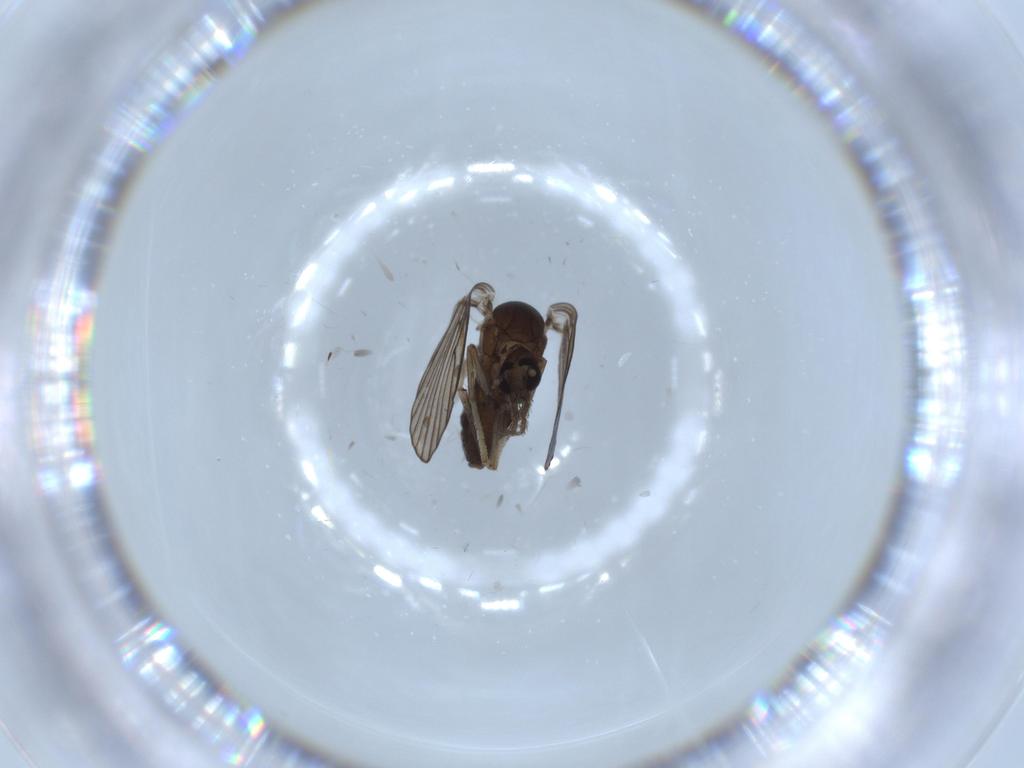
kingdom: Animalia
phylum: Arthropoda
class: Insecta
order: Diptera
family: Psychodidae
